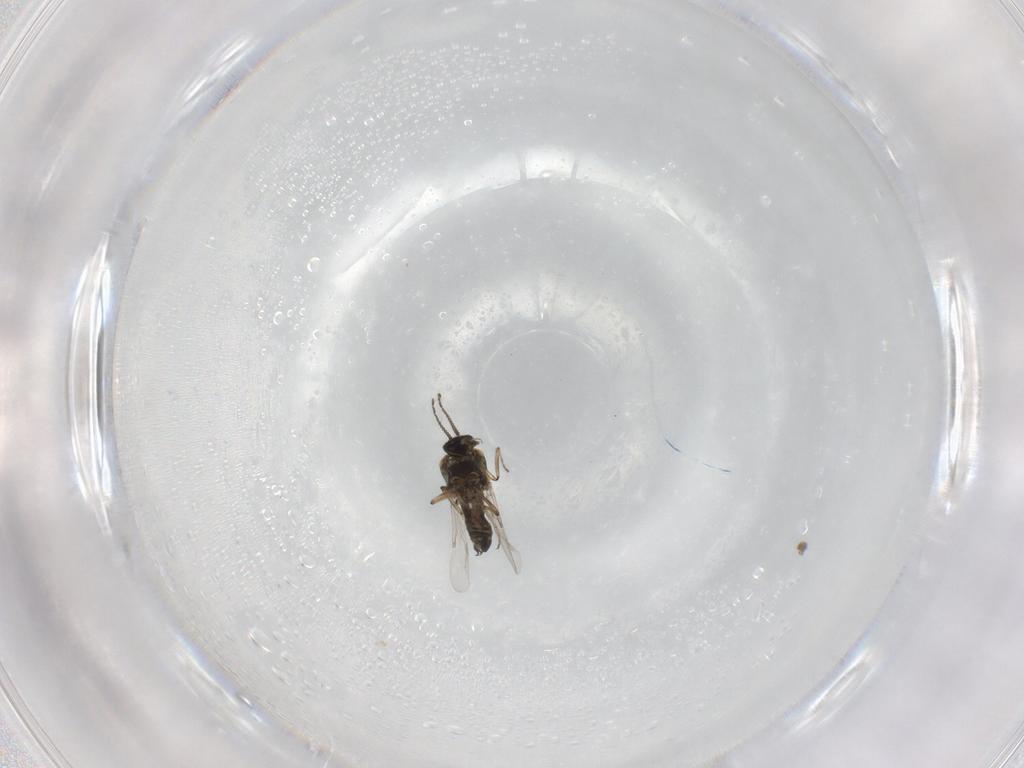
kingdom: Animalia
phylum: Arthropoda
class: Insecta
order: Diptera
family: Ceratopogonidae
